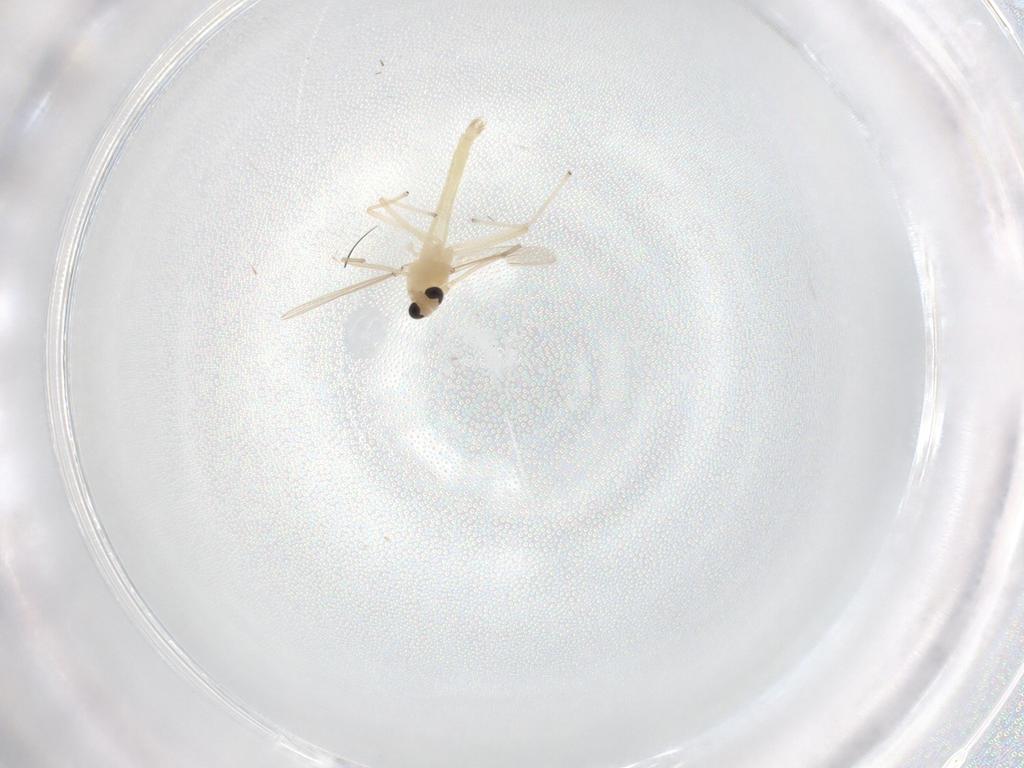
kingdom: Animalia
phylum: Arthropoda
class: Insecta
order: Diptera
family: Chironomidae
